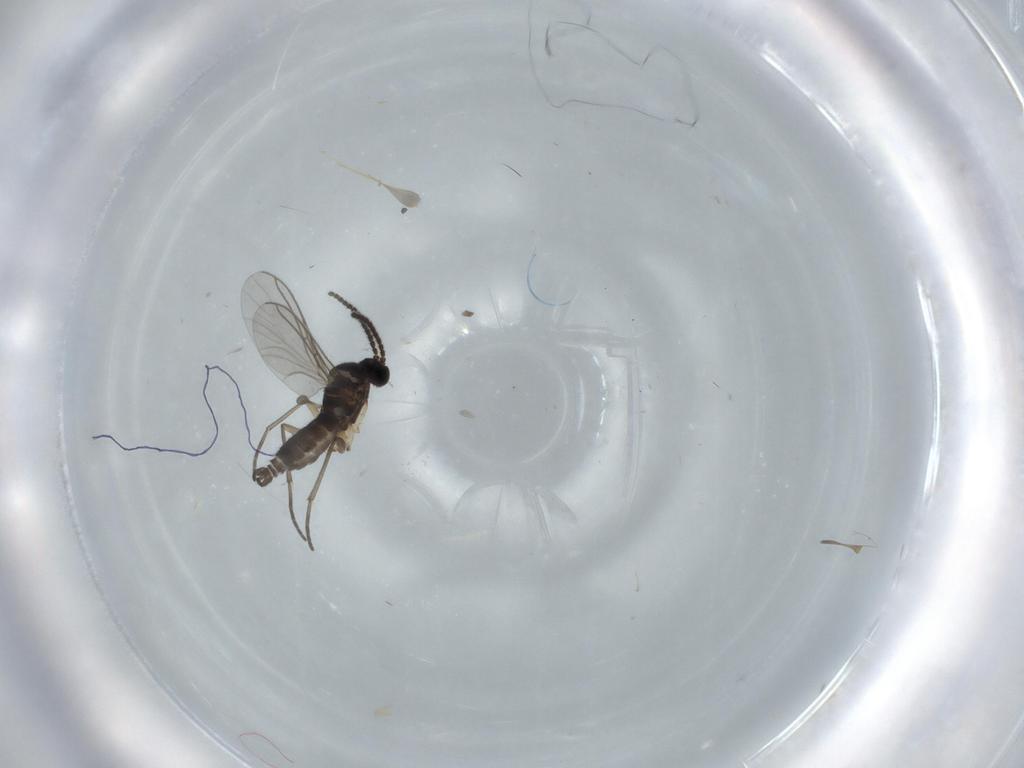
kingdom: Animalia
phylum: Arthropoda
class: Insecta
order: Diptera
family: Sciaridae
